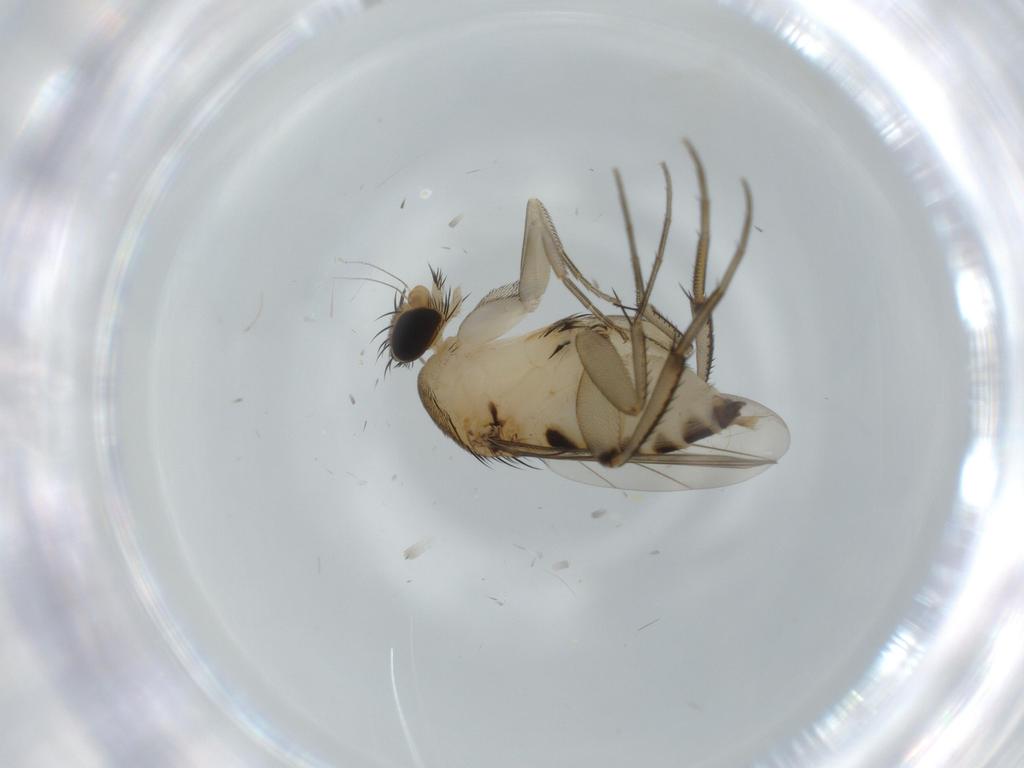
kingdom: Animalia
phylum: Arthropoda
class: Insecta
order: Diptera
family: Phoridae
